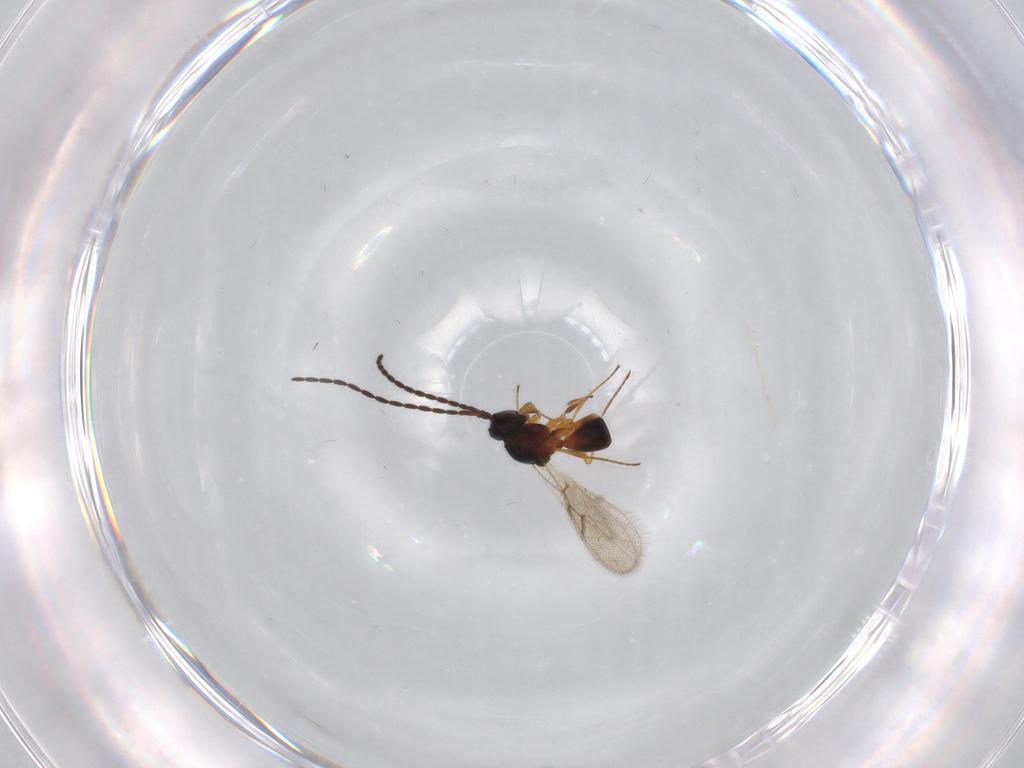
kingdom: Animalia
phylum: Arthropoda
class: Insecta
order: Hymenoptera
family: Figitidae
